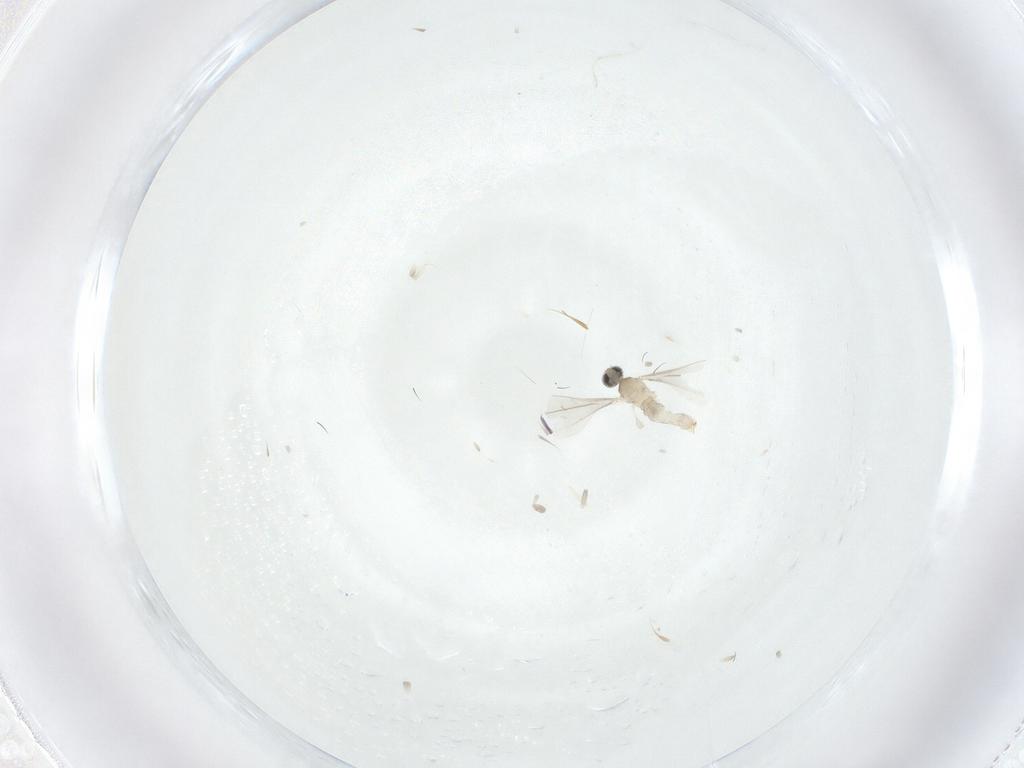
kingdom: Animalia
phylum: Arthropoda
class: Insecta
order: Diptera
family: Cecidomyiidae
